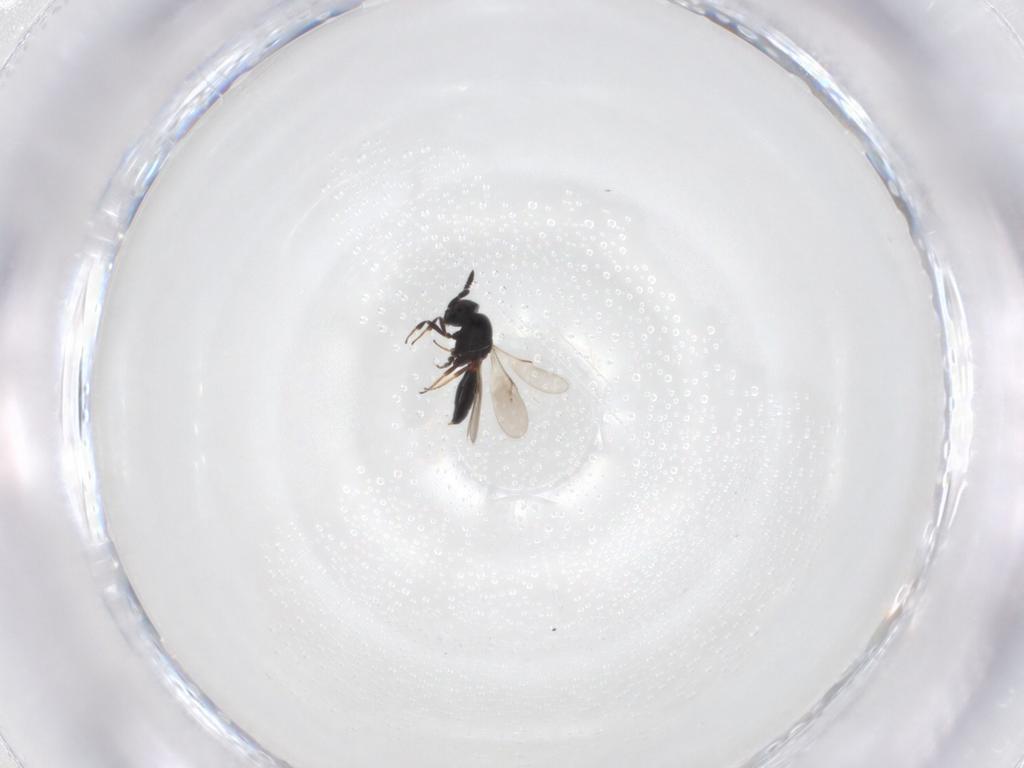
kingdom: Animalia
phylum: Arthropoda
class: Insecta
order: Hymenoptera
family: Scelionidae
